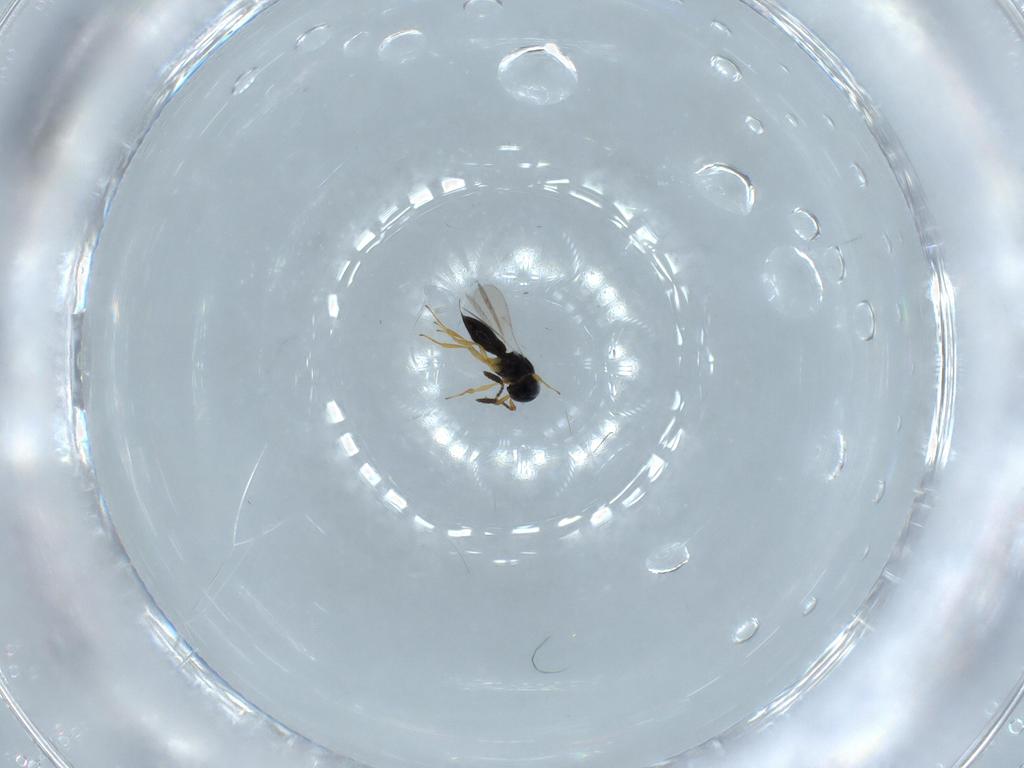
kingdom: Animalia
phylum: Arthropoda
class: Insecta
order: Hymenoptera
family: Scelionidae
